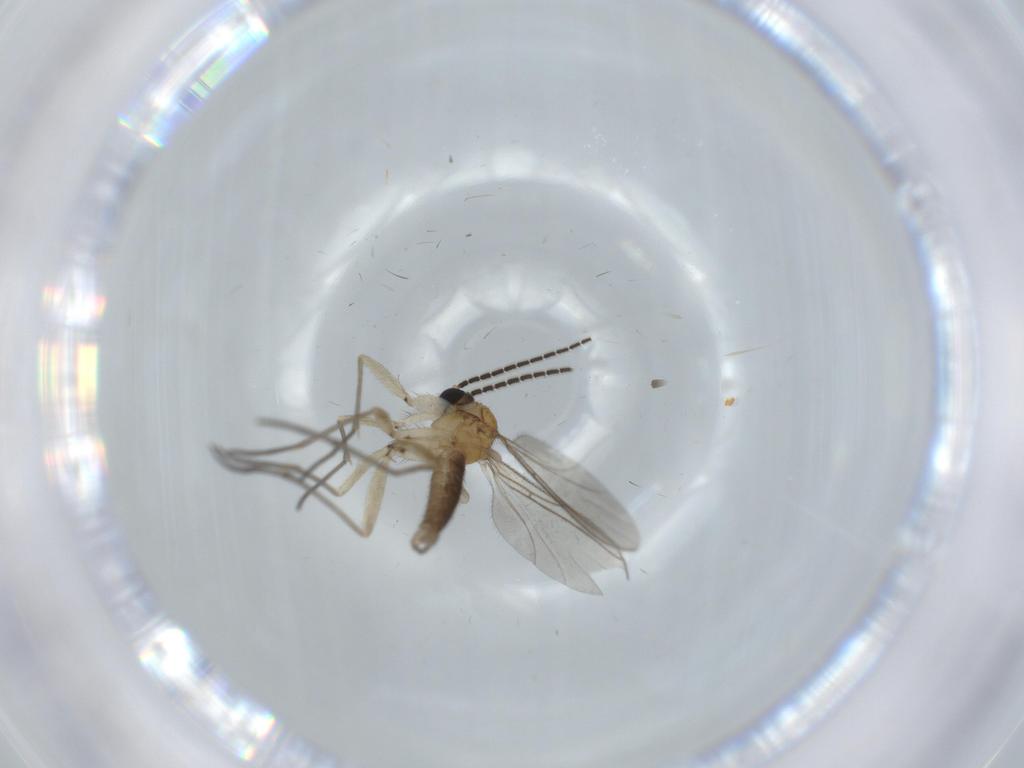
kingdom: Animalia
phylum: Arthropoda
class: Insecta
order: Diptera
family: Sciaridae
